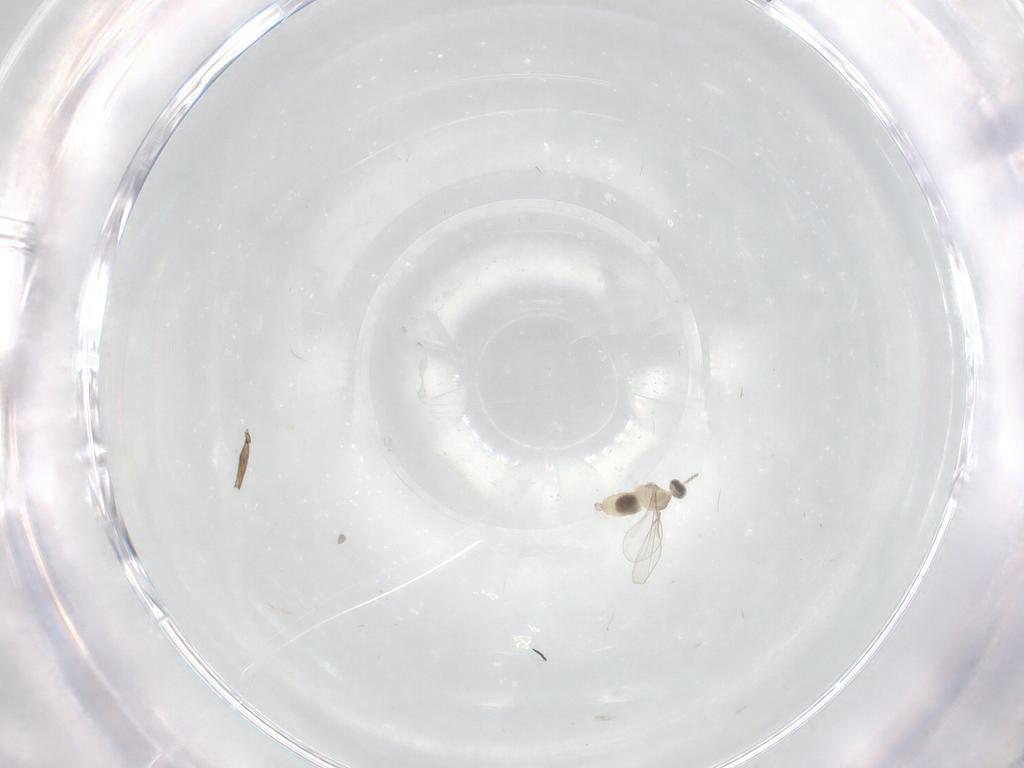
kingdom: Animalia
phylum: Arthropoda
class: Insecta
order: Diptera
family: Cecidomyiidae
